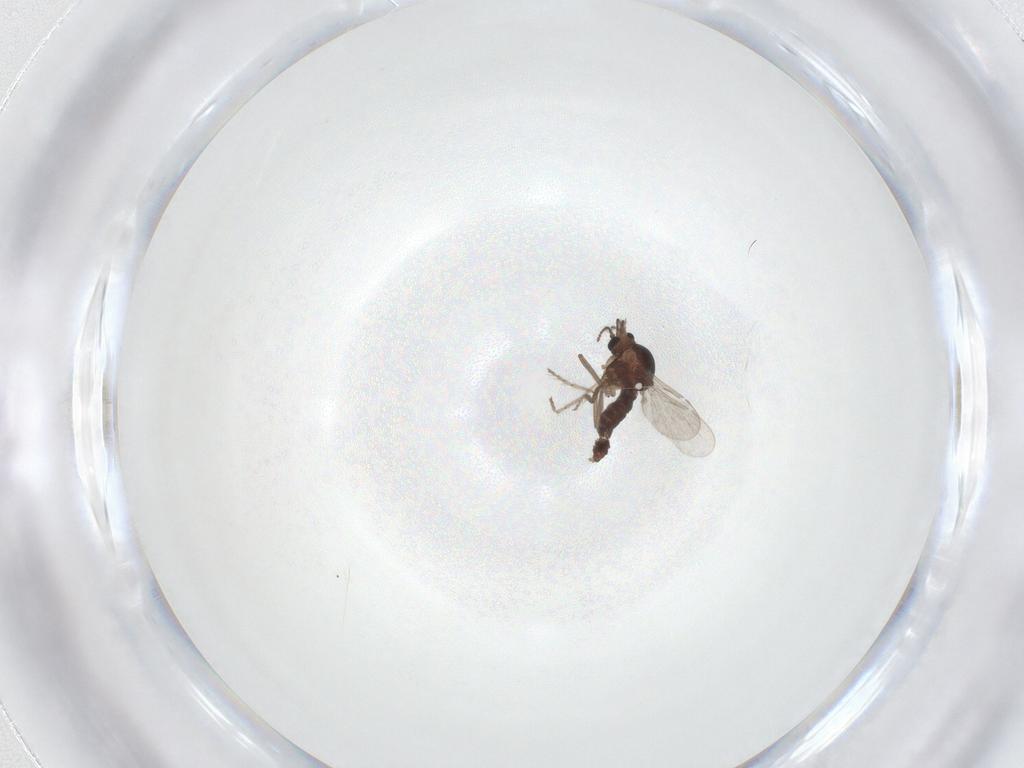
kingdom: Animalia
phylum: Arthropoda
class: Insecta
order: Diptera
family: Ceratopogonidae
